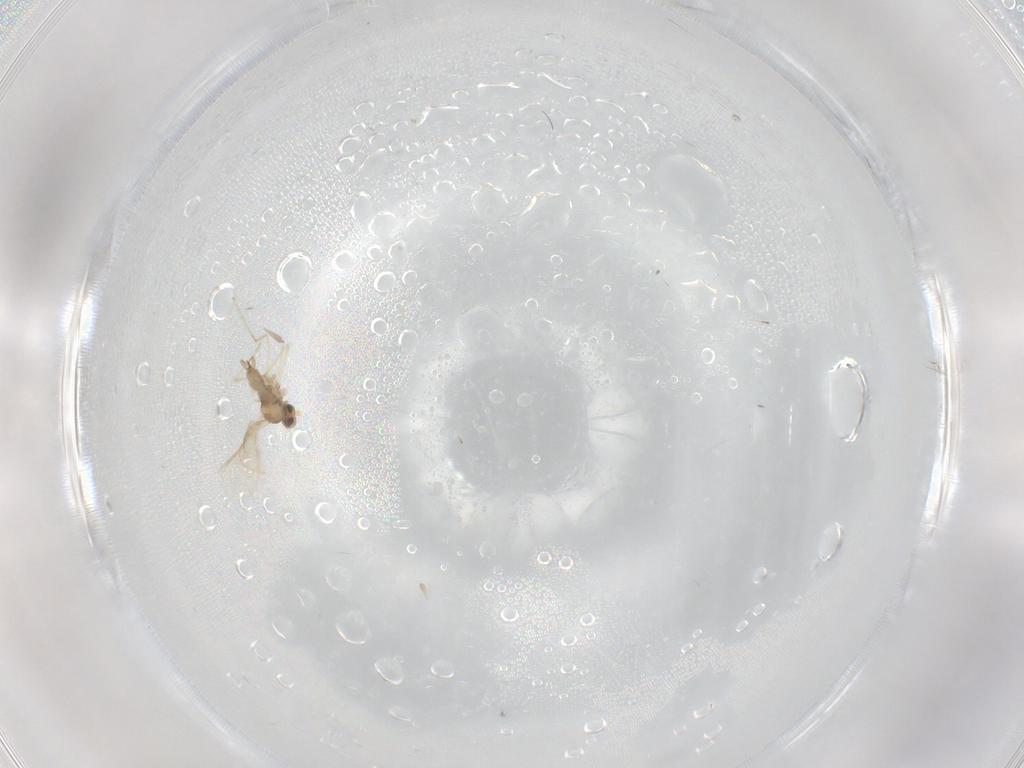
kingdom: Animalia
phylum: Arthropoda
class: Insecta
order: Diptera
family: Cecidomyiidae
